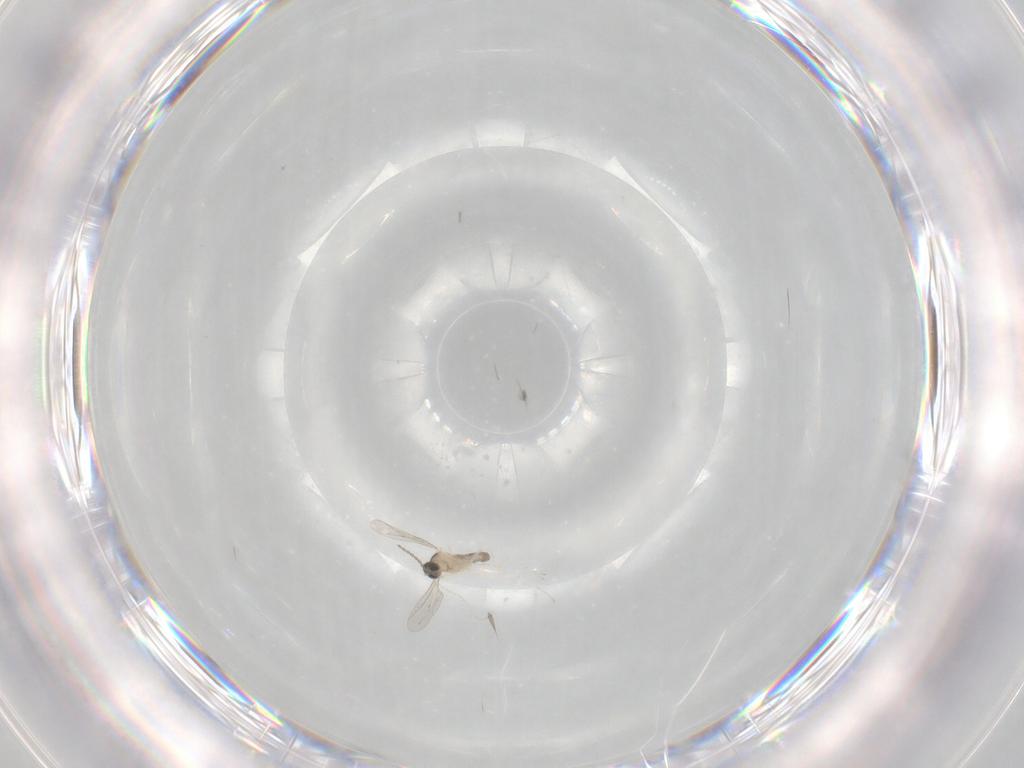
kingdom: Animalia
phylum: Arthropoda
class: Insecta
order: Diptera
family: Cecidomyiidae
